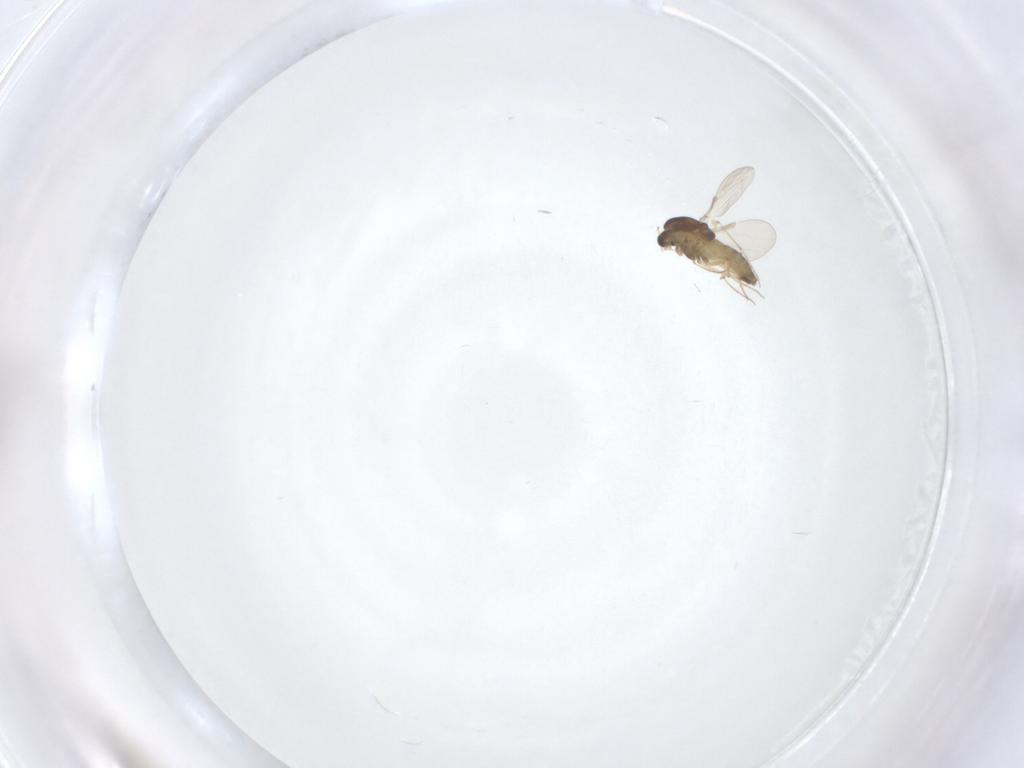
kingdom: Animalia
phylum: Arthropoda
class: Insecta
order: Diptera
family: Chironomidae
